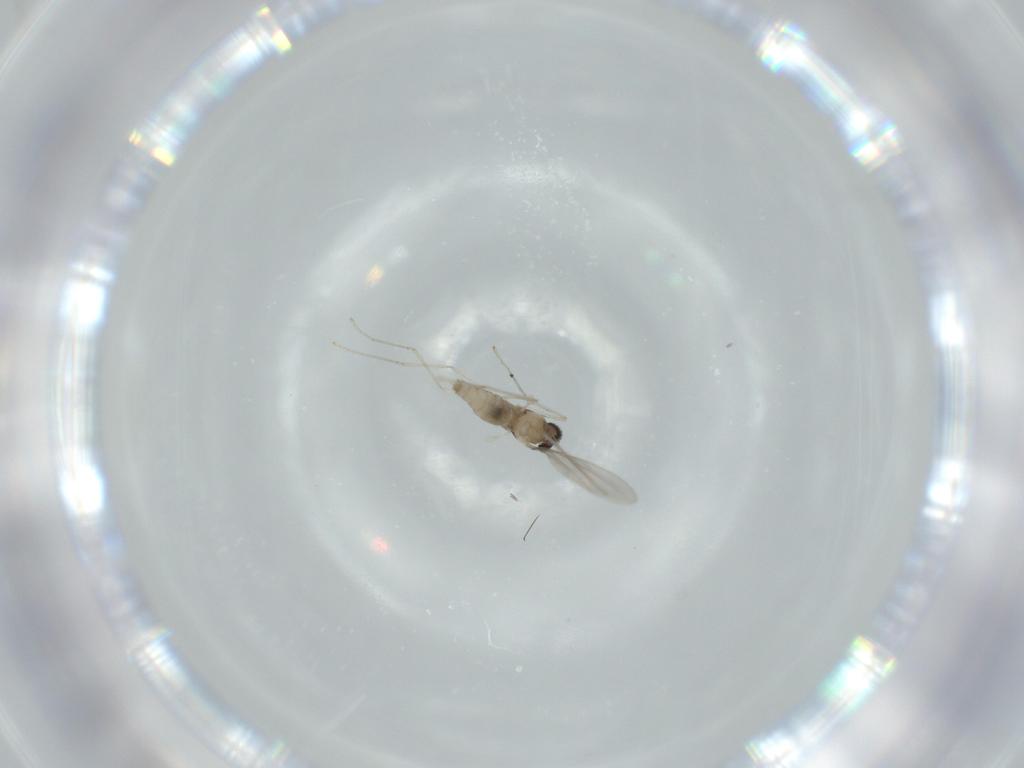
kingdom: Animalia
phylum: Arthropoda
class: Insecta
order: Diptera
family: Cecidomyiidae
